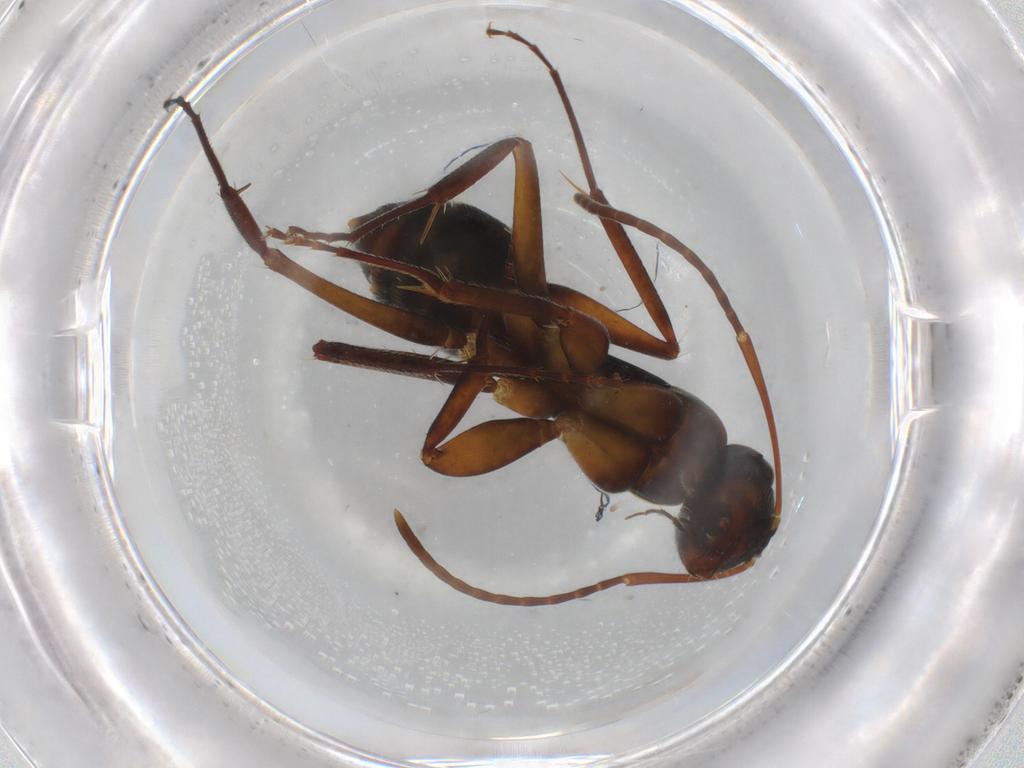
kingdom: Animalia
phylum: Arthropoda
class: Insecta
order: Hymenoptera
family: Formicidae
